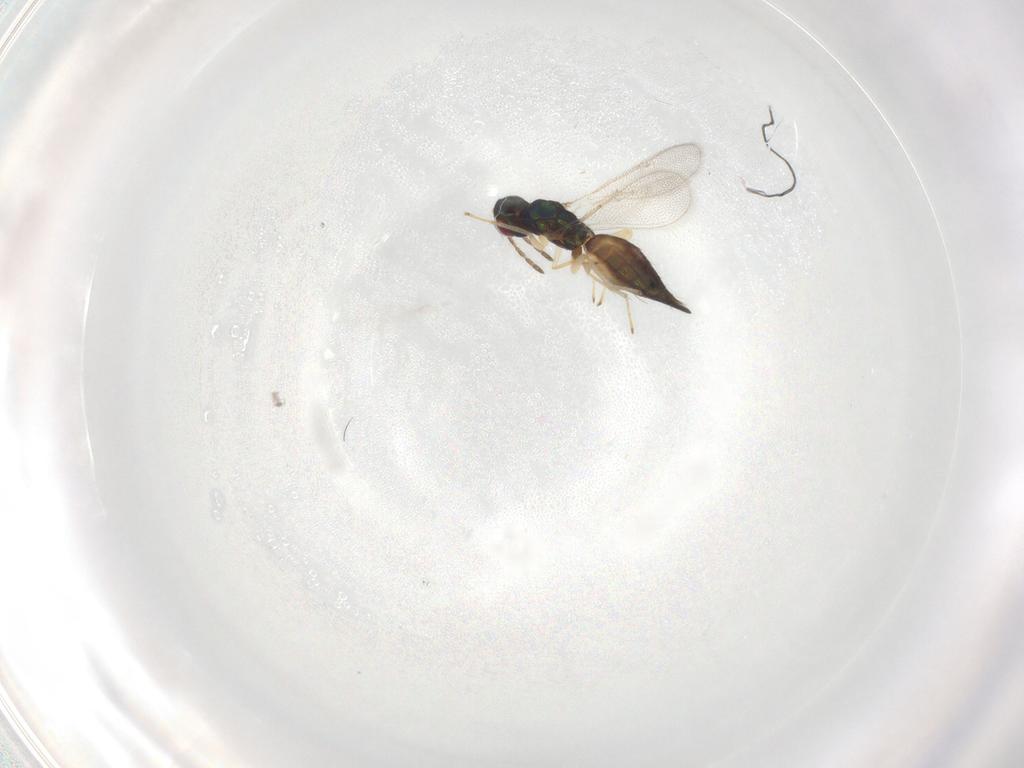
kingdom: Animalia
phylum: Arthropoda
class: Insecta
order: Hymenoptera
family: Eulophidae
